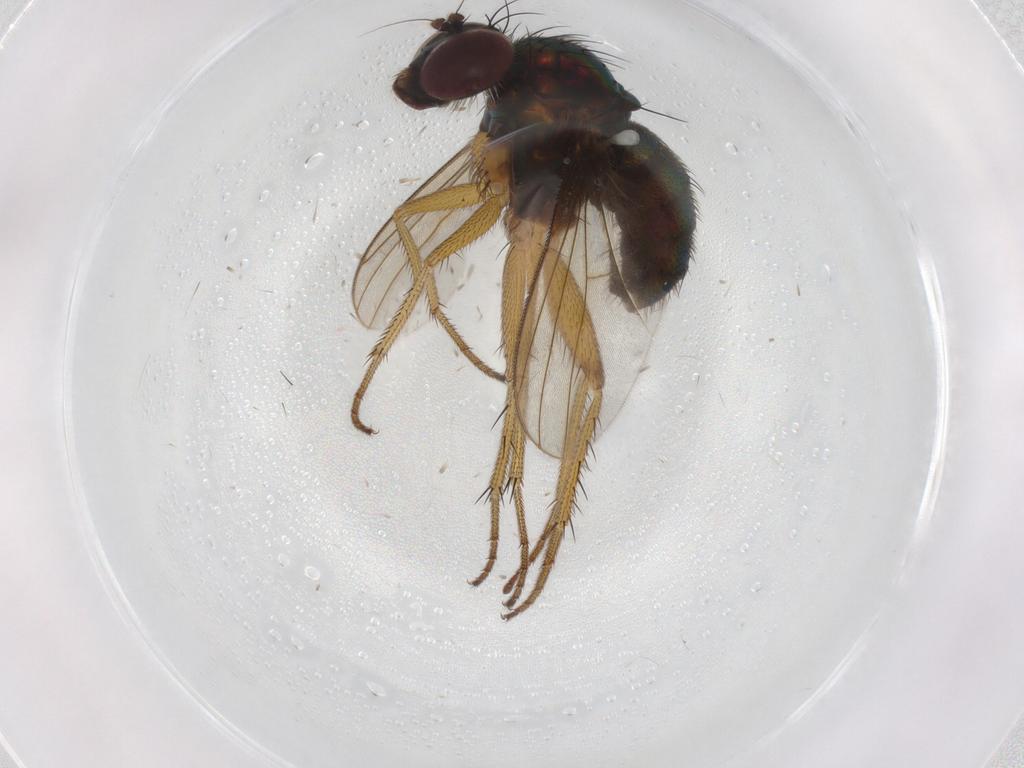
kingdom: Animalia
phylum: Arthropoda
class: Insecta
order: Diptera
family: Dolichopodidae
